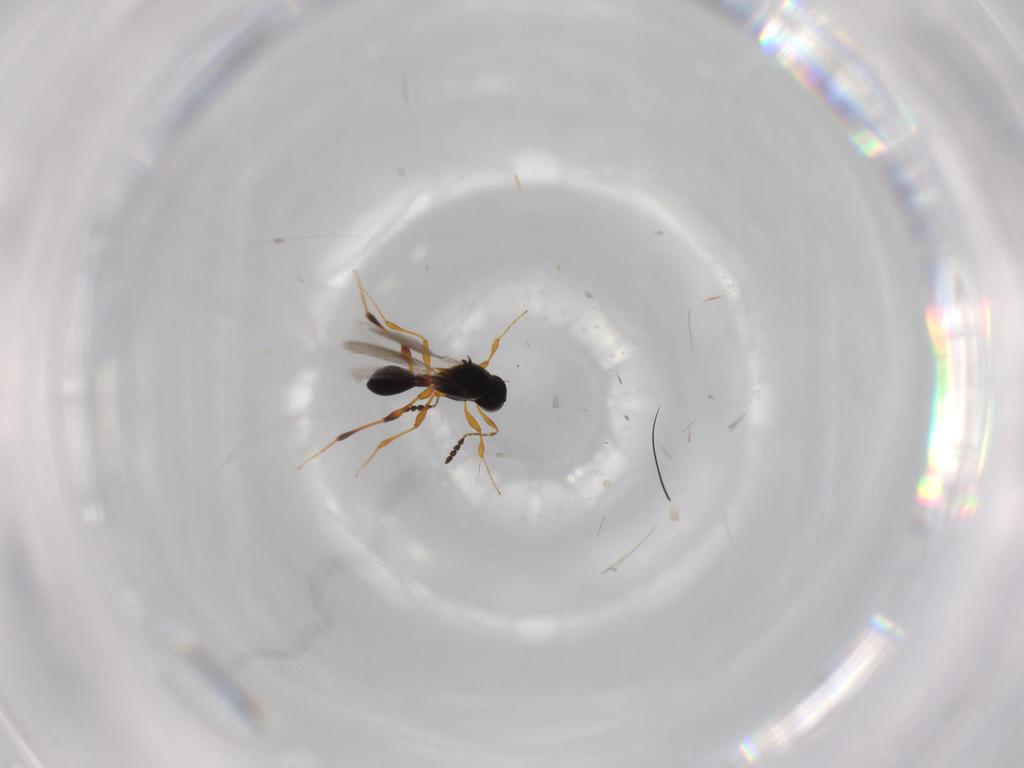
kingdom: Animalia
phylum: Arthropoda
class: Insecta
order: Hymenoptera
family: Platygastridae
